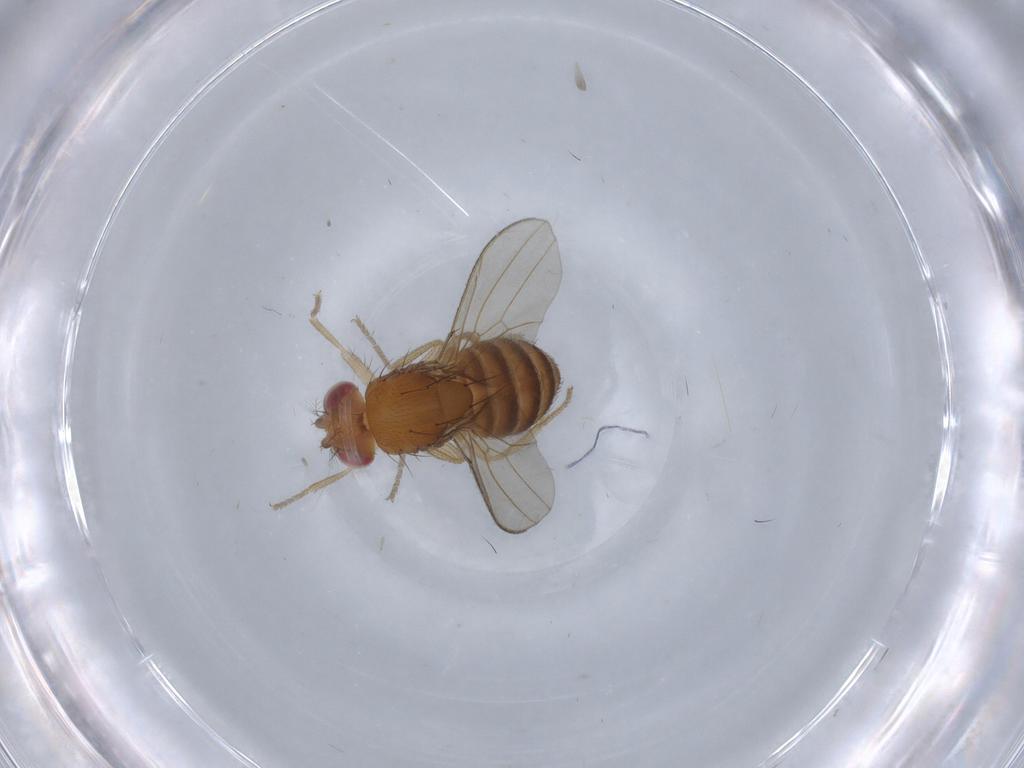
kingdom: Animalia
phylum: Arthropoda
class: Insecta
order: Diptera
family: Drosophilidae
